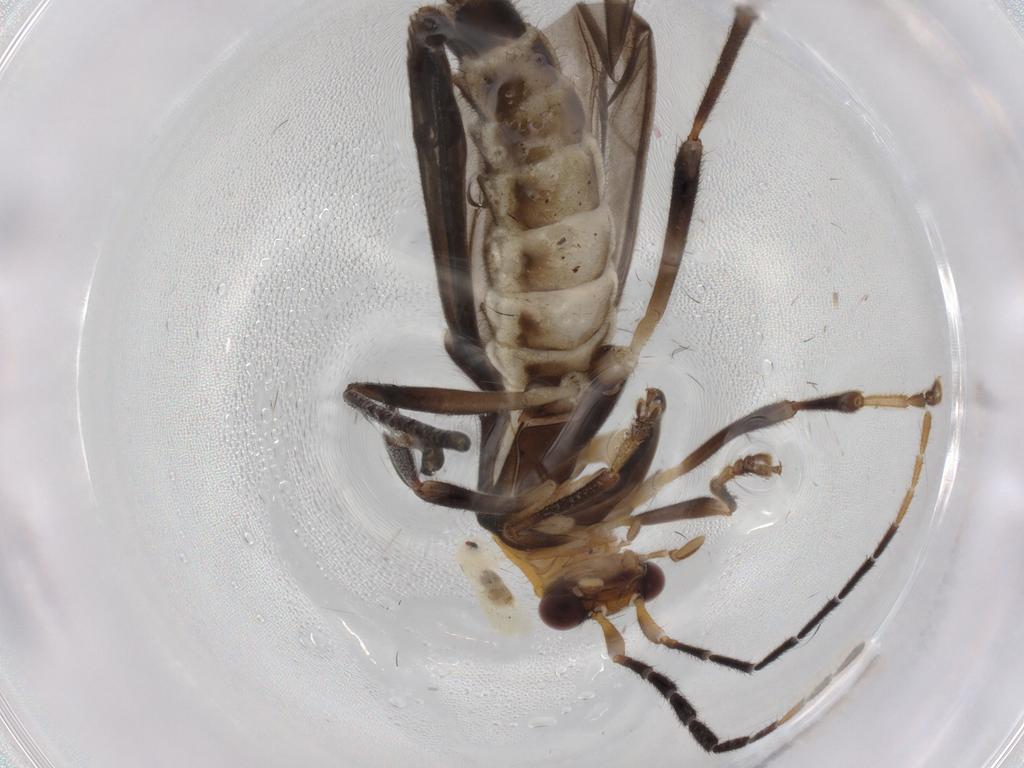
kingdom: Animalia
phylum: Arthropoda
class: Insecta
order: Coleoptera
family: Cantharidae
